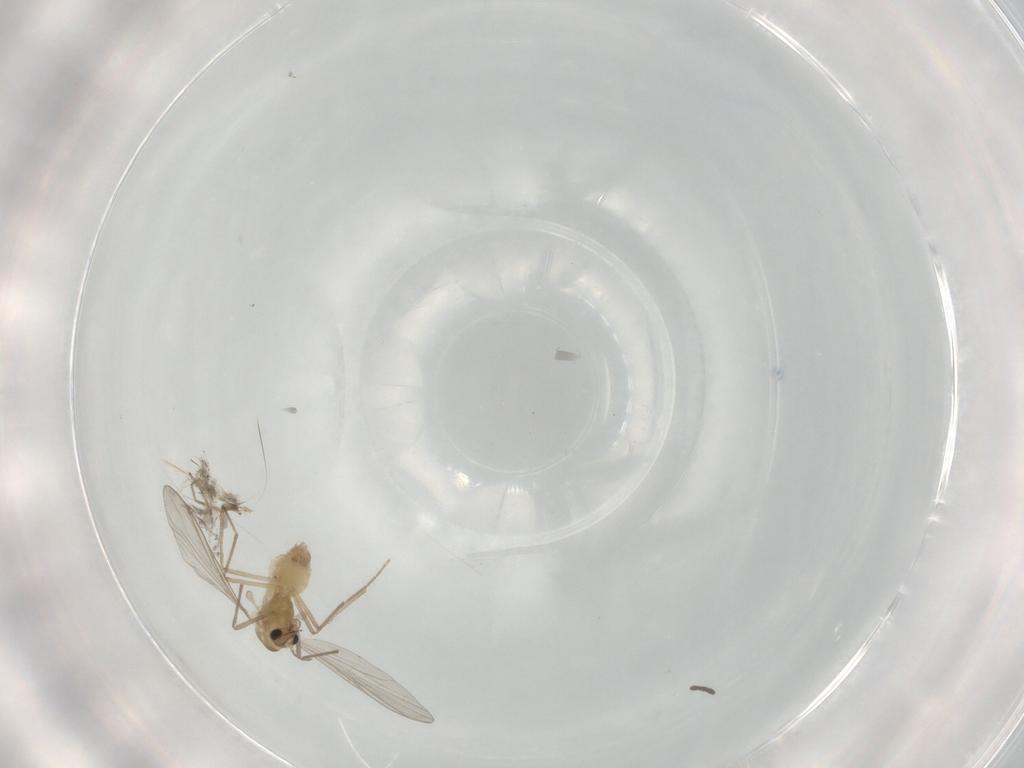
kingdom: Animalia
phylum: Arthropoda
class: Insecta
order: Diptera
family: Chironomidae
